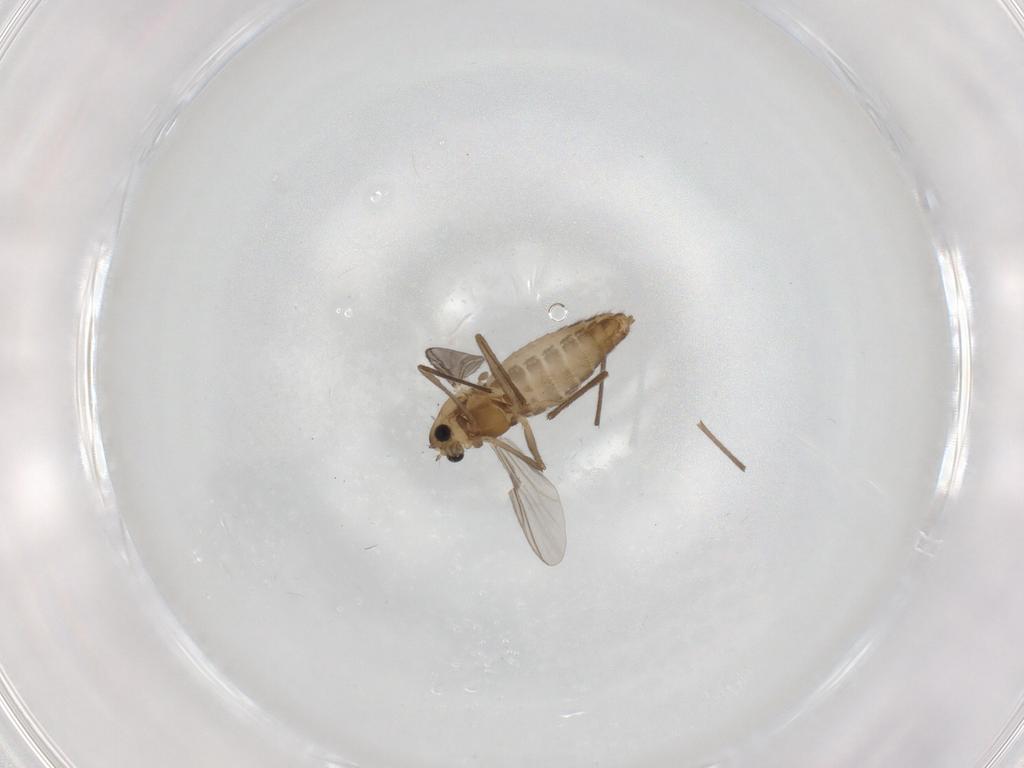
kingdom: Animalia
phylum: Arthropoda
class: Insecta
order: Diptera
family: Chironomidae
